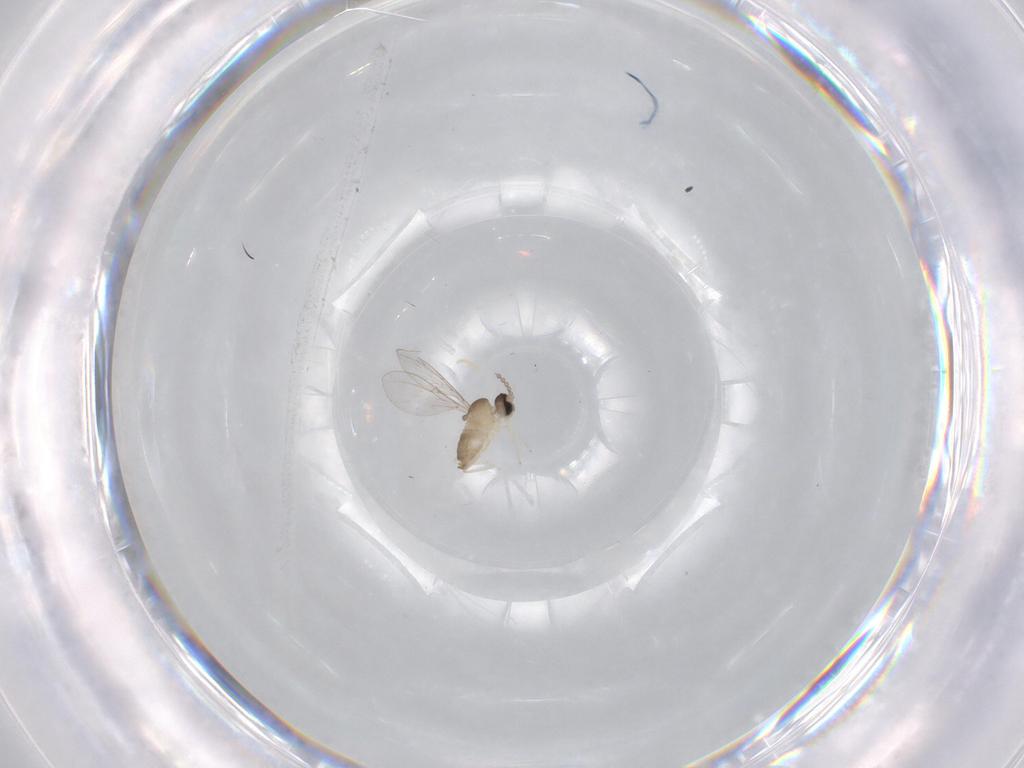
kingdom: Animalia
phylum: Arthropoda
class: Insecta
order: Diptera
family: Cecidomyiidae
